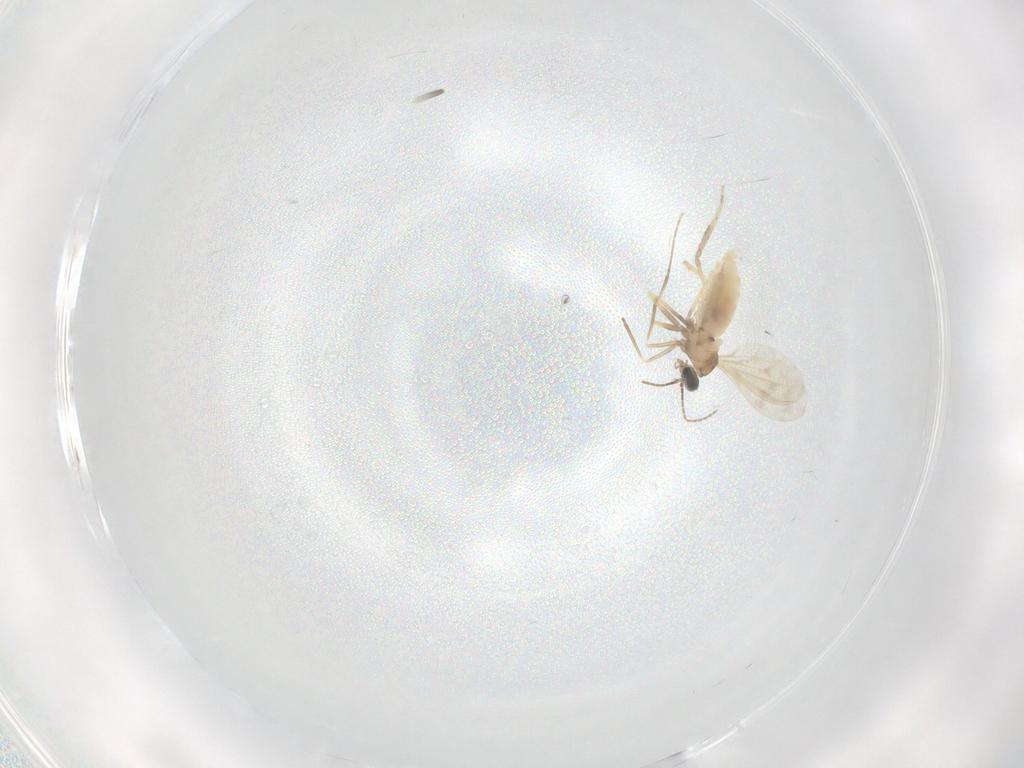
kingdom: Animalia
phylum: Arthropoda
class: Insecta
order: Diptera
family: Cecidomyiidae
